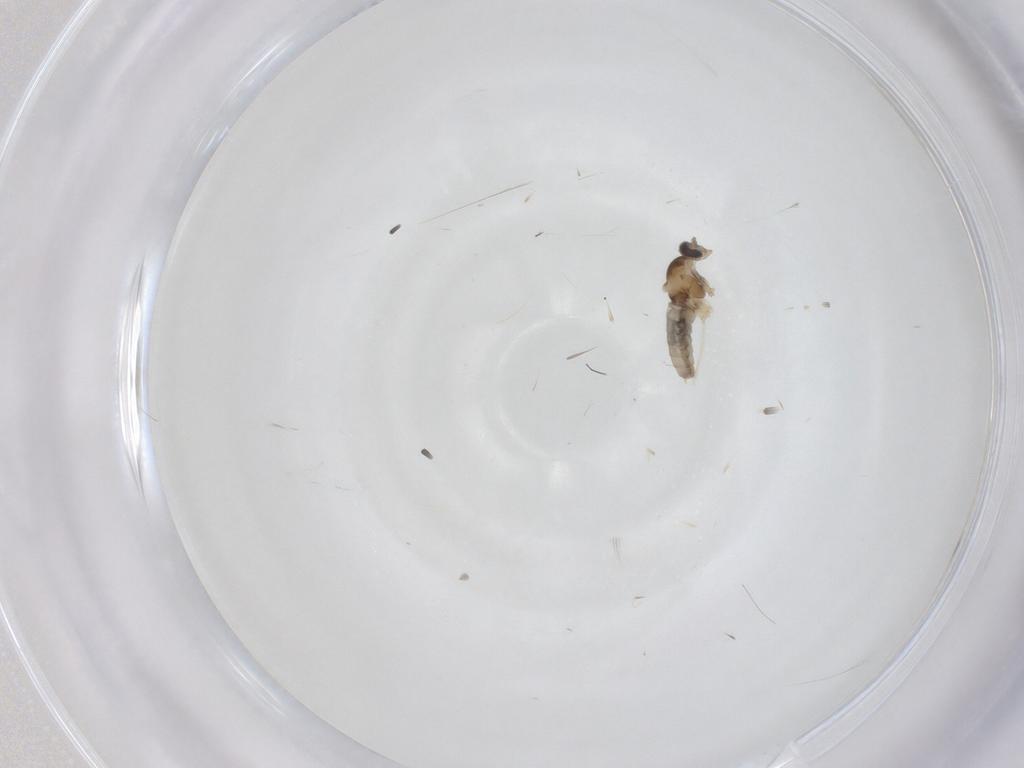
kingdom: Animalia
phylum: Arthropoda
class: Insecta
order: Diptera
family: Cecidomyiidae
